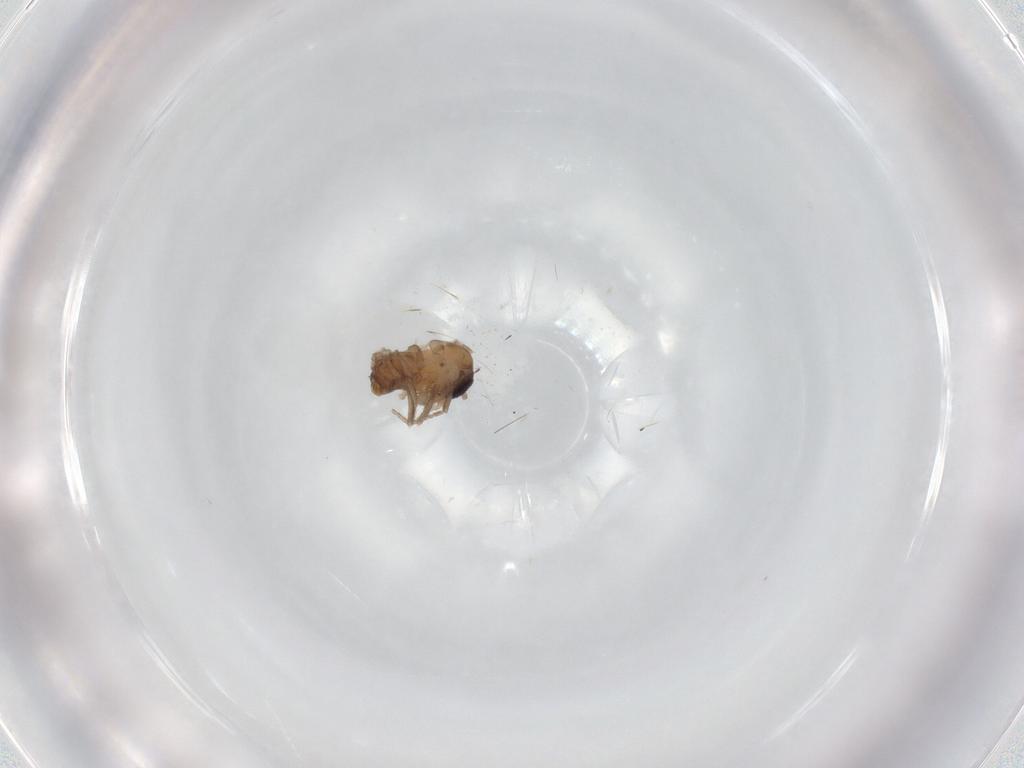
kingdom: Animalia
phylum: Arthropoda
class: Insecta
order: Diptera
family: Psychodidae
